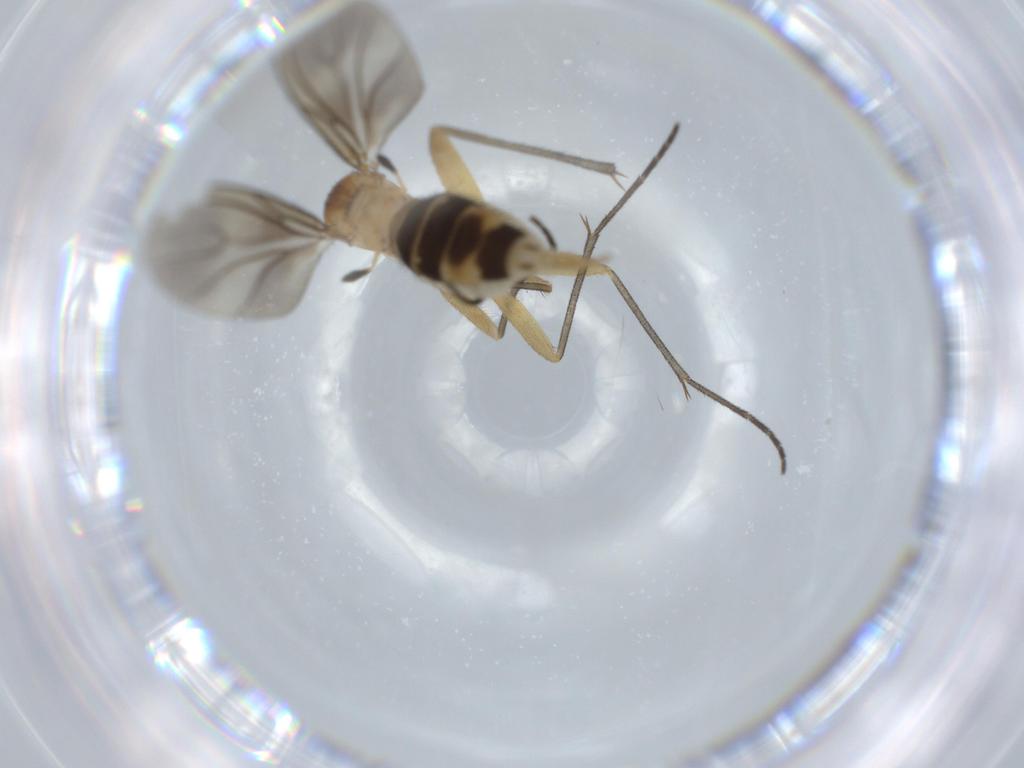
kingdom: Animalia
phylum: Arthropoda
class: Insecta
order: Diptera
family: Sciaridae
